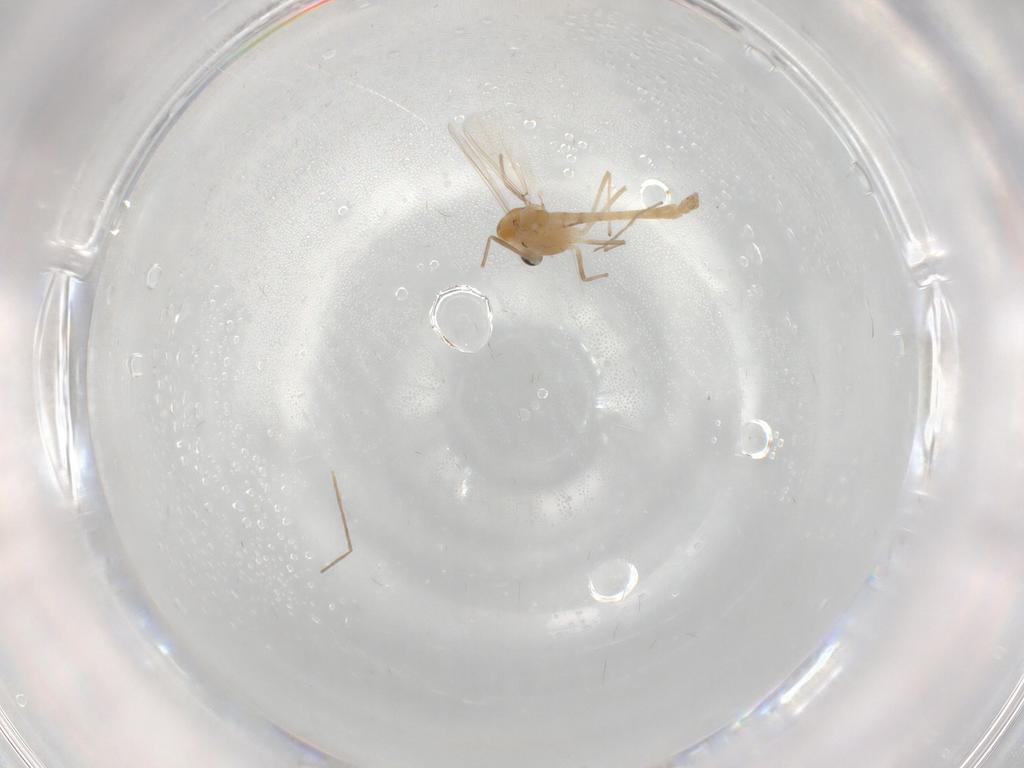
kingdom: Animalia
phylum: Arthropoda
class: Insecta
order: Diptera
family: Chironomidae
